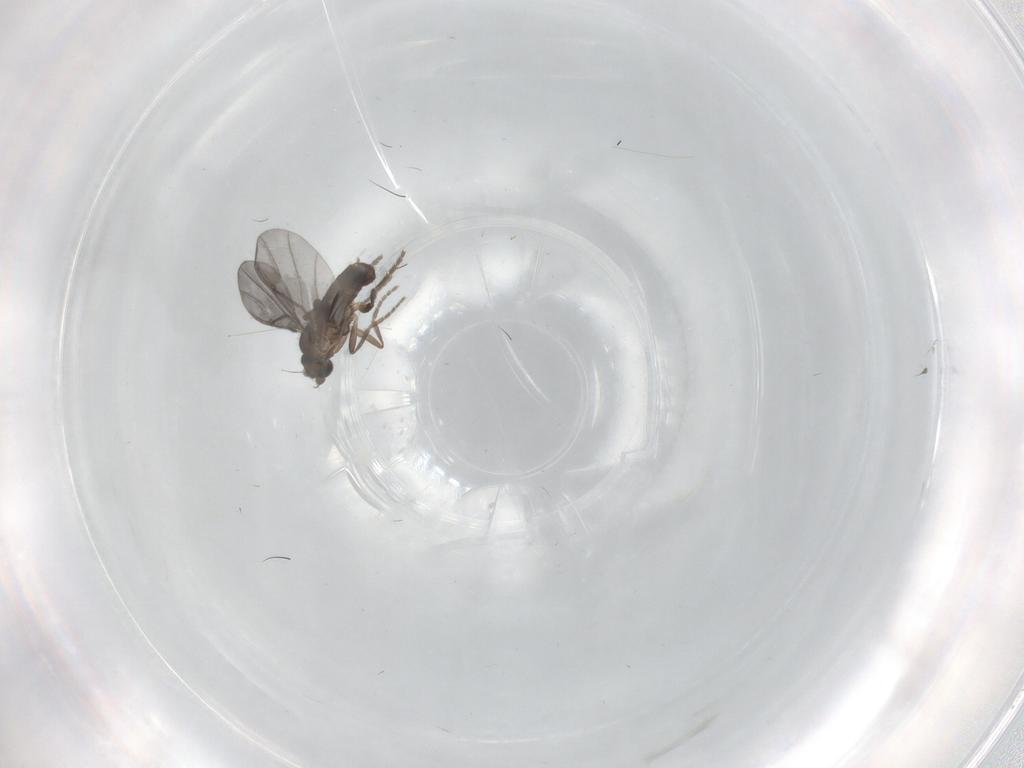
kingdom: Animalia
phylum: Arthropoda
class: Insecta
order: Diptera
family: Phoridae
